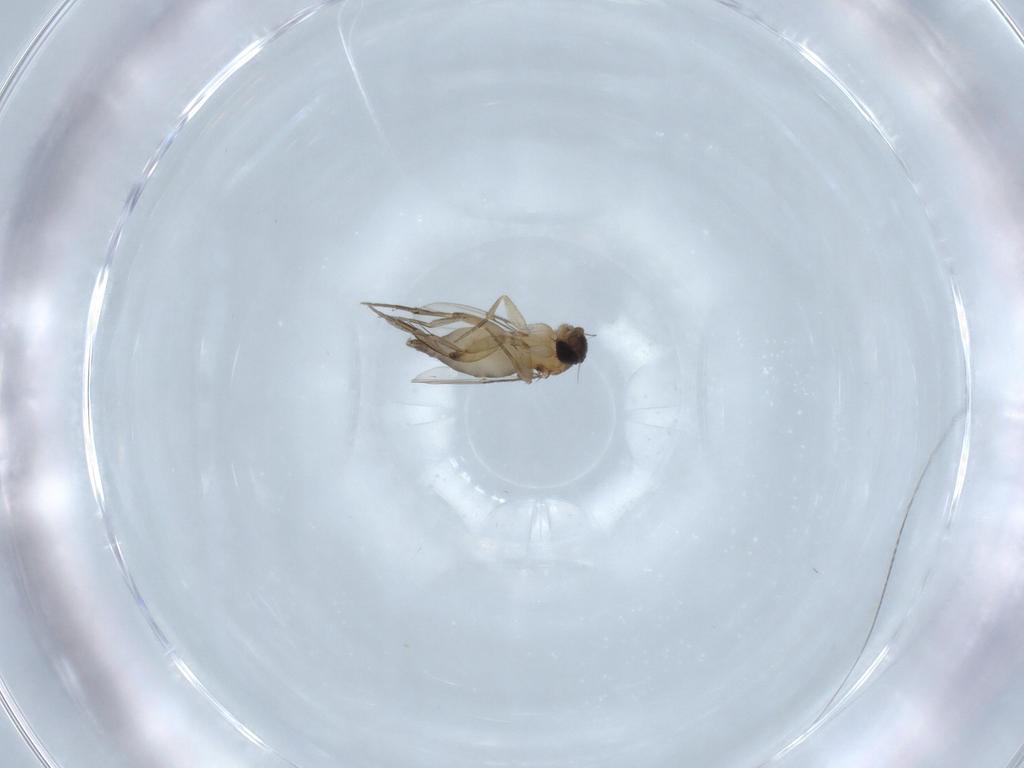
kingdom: Animalia
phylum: Arthropoda
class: Insecta
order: Diptera
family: Phoridae
